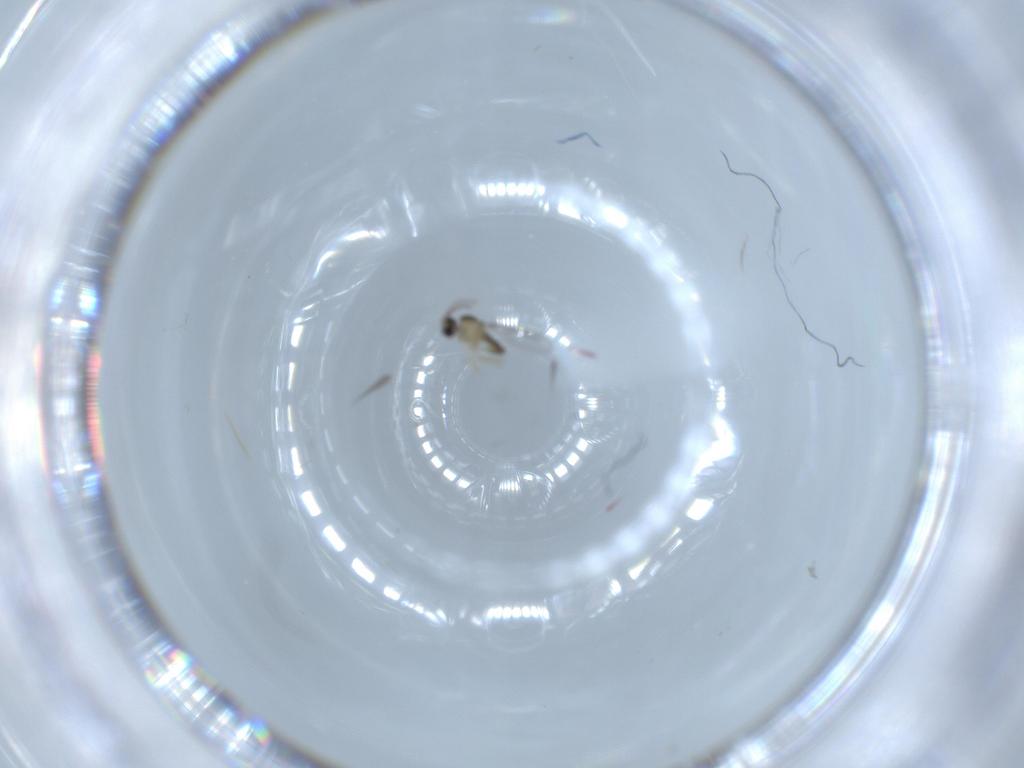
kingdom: Animalia
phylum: Arthropoda
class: Insecta
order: Diptera
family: Cecidomyiidae
